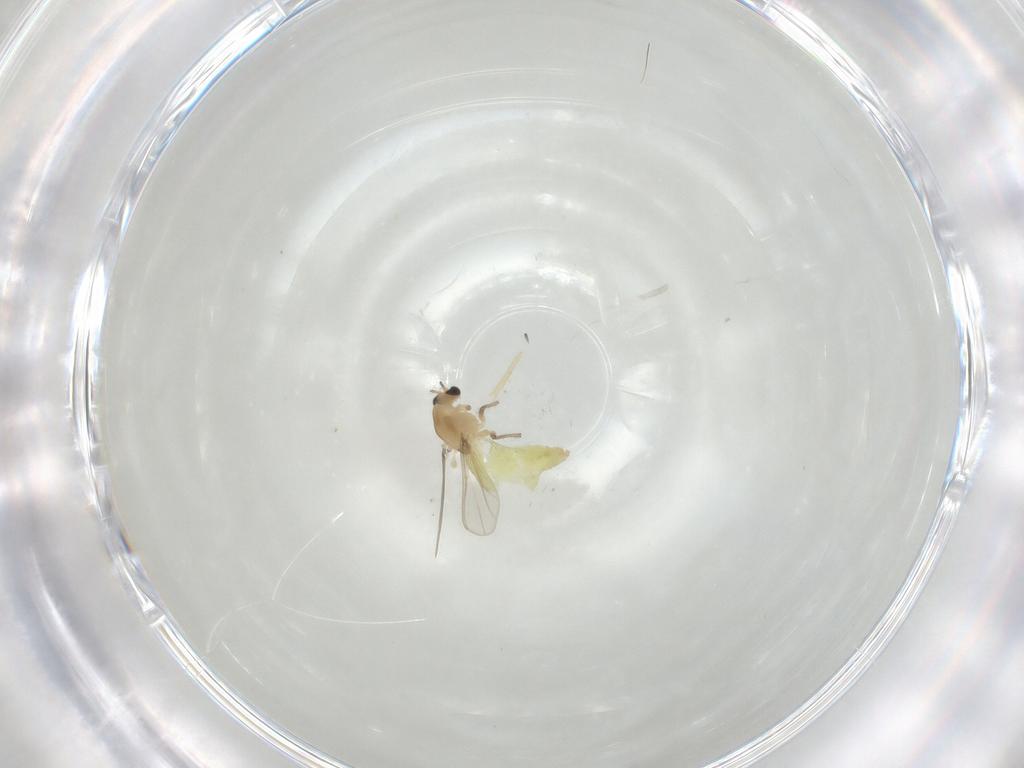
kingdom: Animalia
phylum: Arthropoda
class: Insecta
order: Diptera
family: Chironomidae
